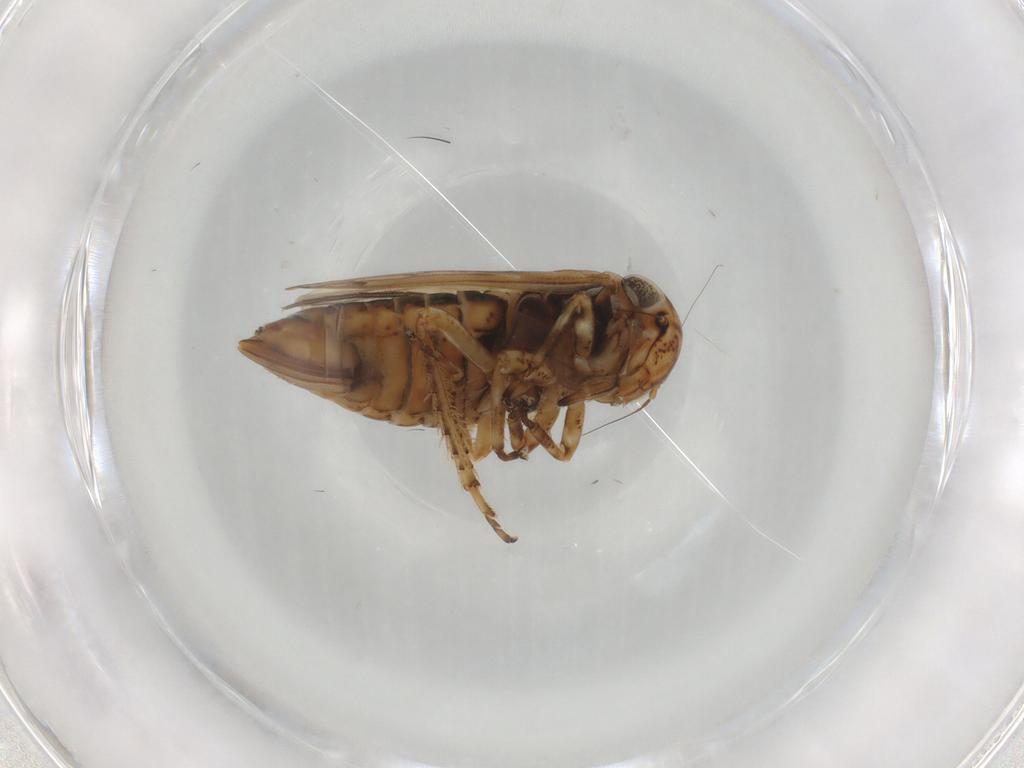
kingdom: Animalia
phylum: Arthropoda
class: Insecta
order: Hemiptera
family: Cicadellidae
